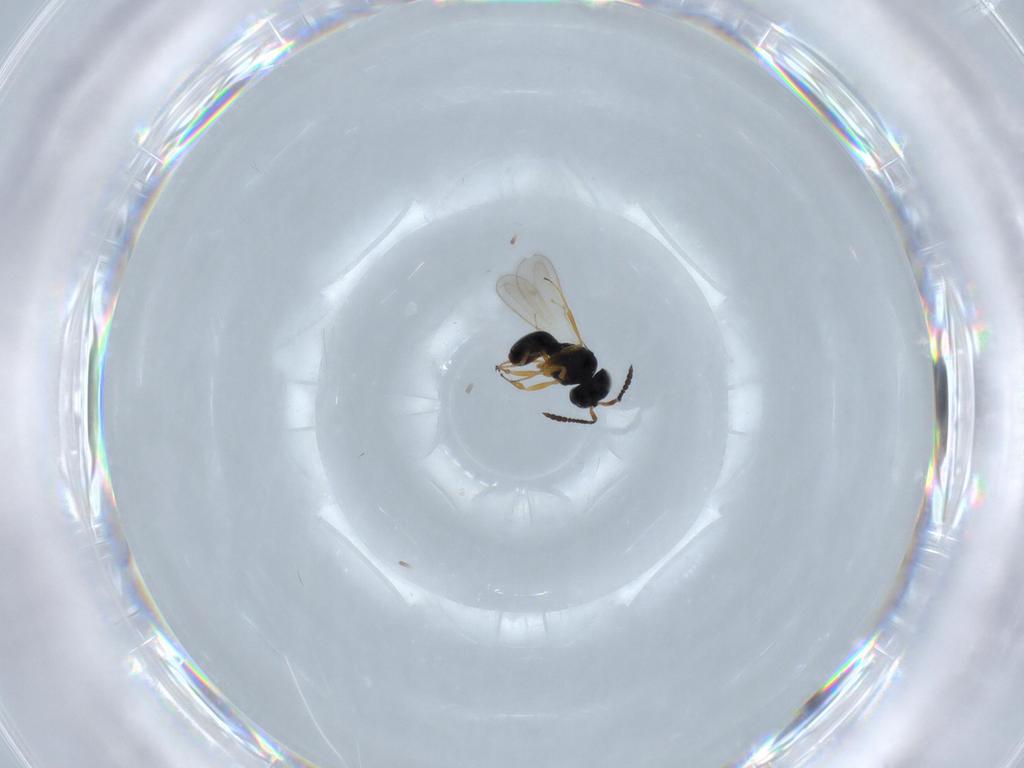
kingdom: Animalia
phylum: Arthropoda
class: Insecta
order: Hymenoptera
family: Scelionidae
